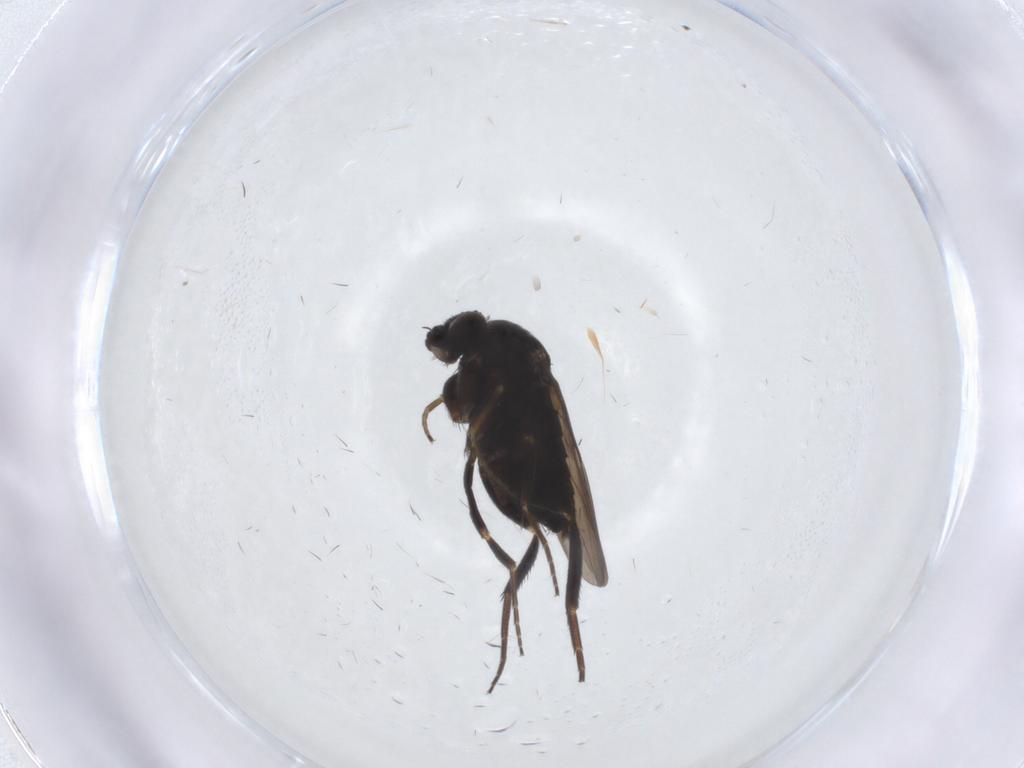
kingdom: Animalia
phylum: Arthropoda
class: Insecta
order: Diptera
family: Phoridae
